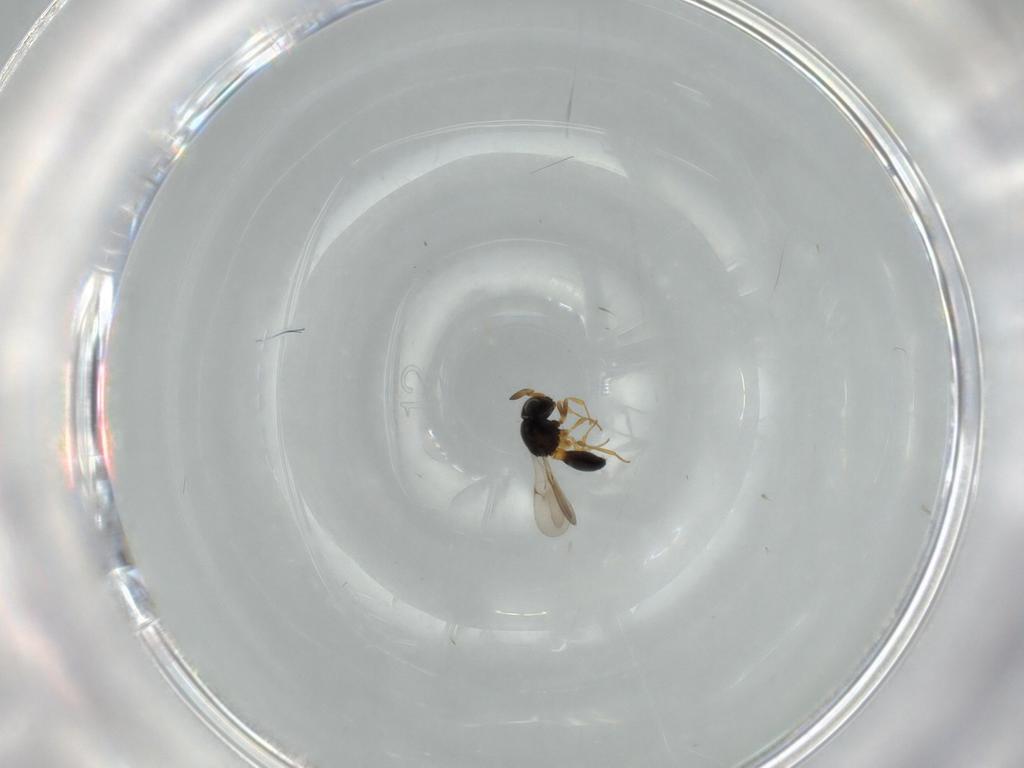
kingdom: Animalia
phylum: Arthropoda
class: Insecta
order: Hymenoptera
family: Scelionidae
